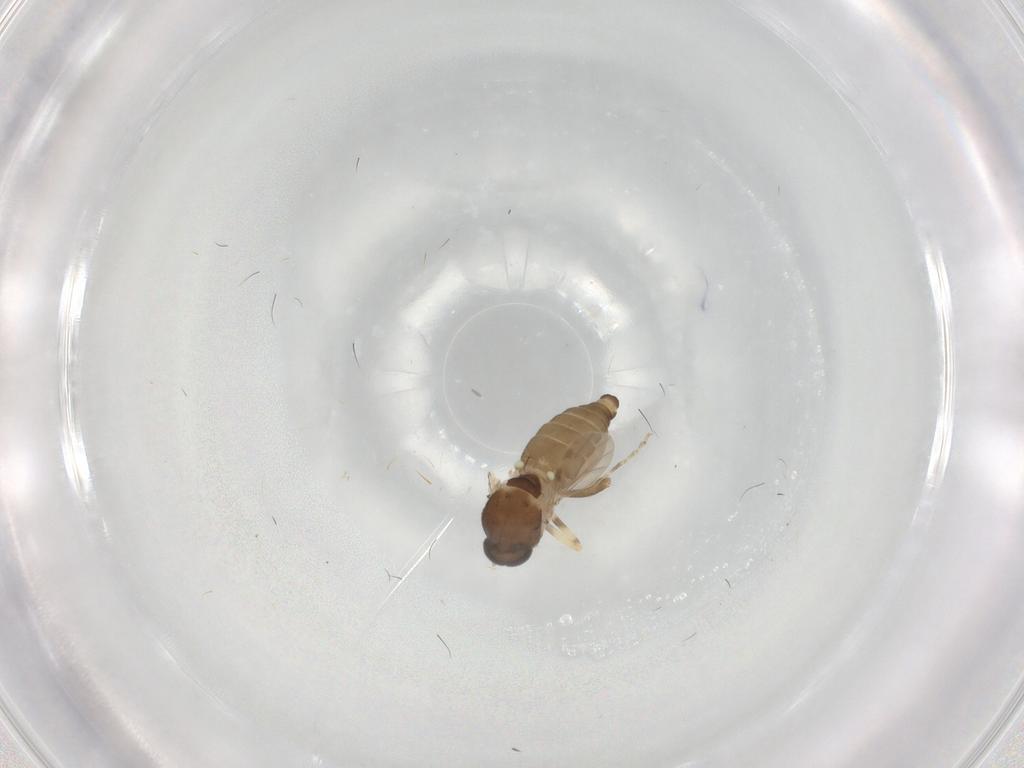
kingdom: Animalia
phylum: Arthropoda
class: Insecta
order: Diptera
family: Ceratopogonidae
